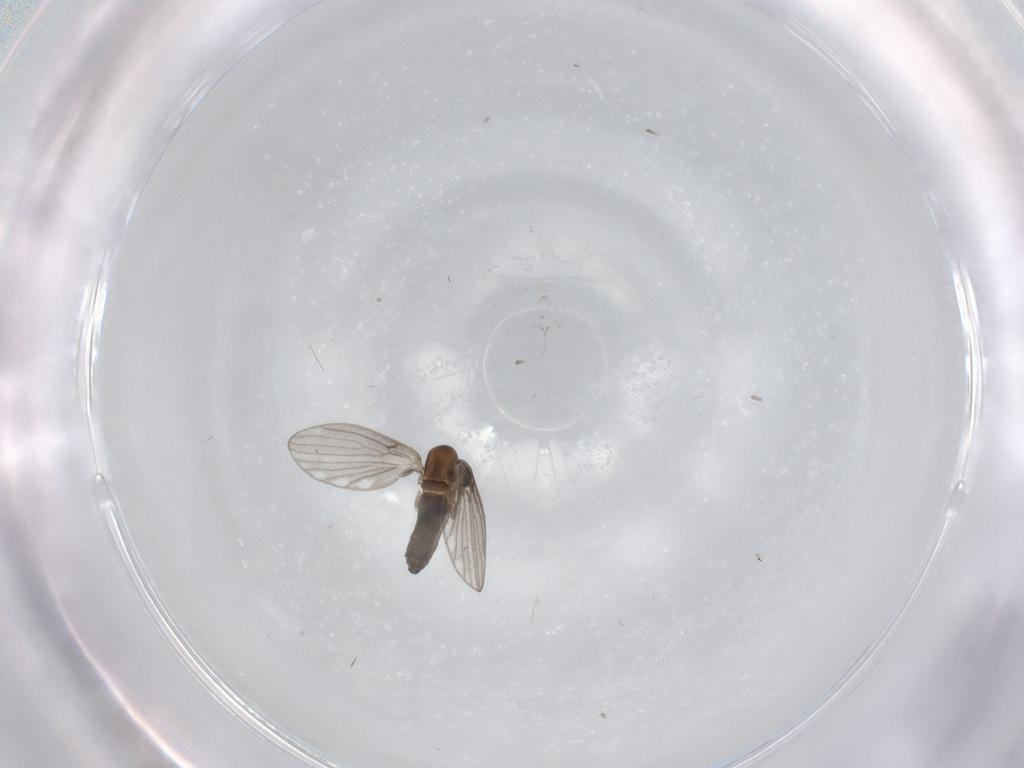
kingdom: Animalia
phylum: Arthropoda
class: Insecta
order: Diptera
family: Psychodidae
